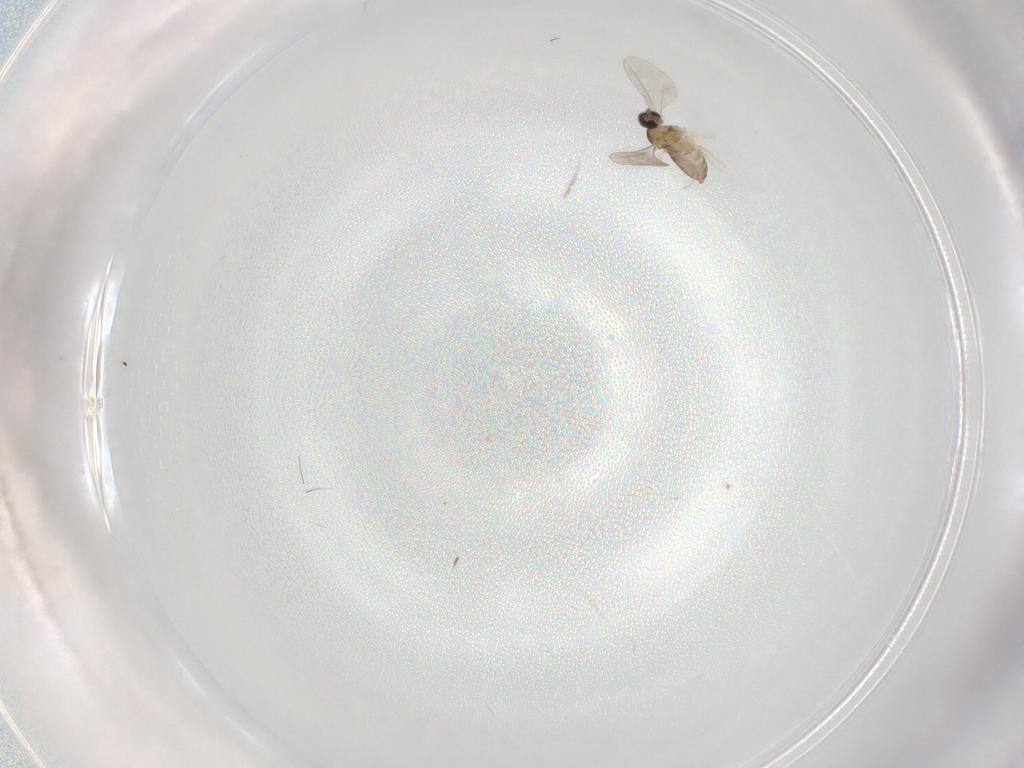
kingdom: Animalia
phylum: Arthropoda
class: Insecta
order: Diptera
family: Cecidomyiidae
